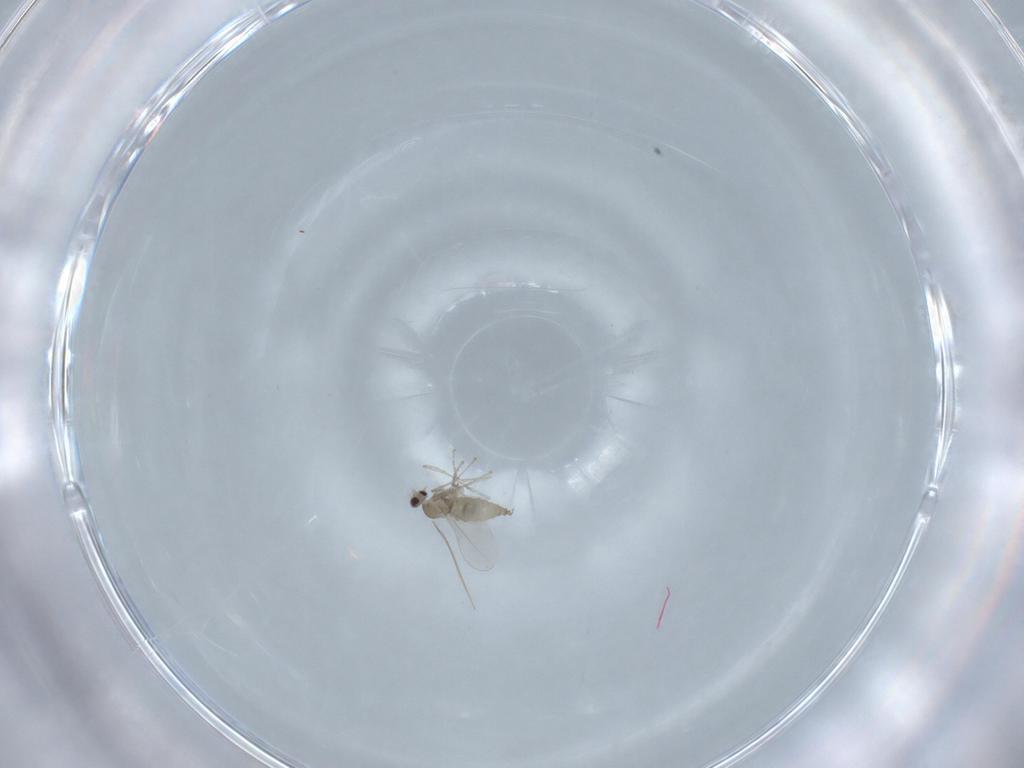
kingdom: Animalia
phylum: Arthropoda
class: Insecta
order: Diptera
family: Cecidomyiidae
